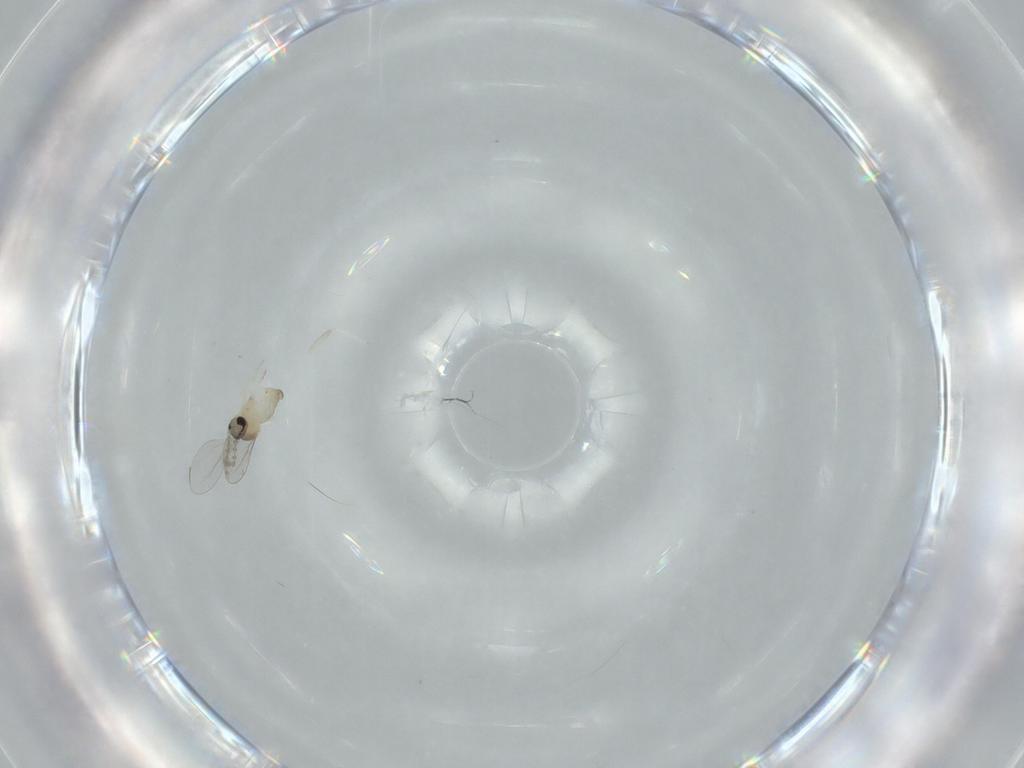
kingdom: Animalia
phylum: Arthropoda
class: Insecta
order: Diptera
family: Cecidomyiidae
